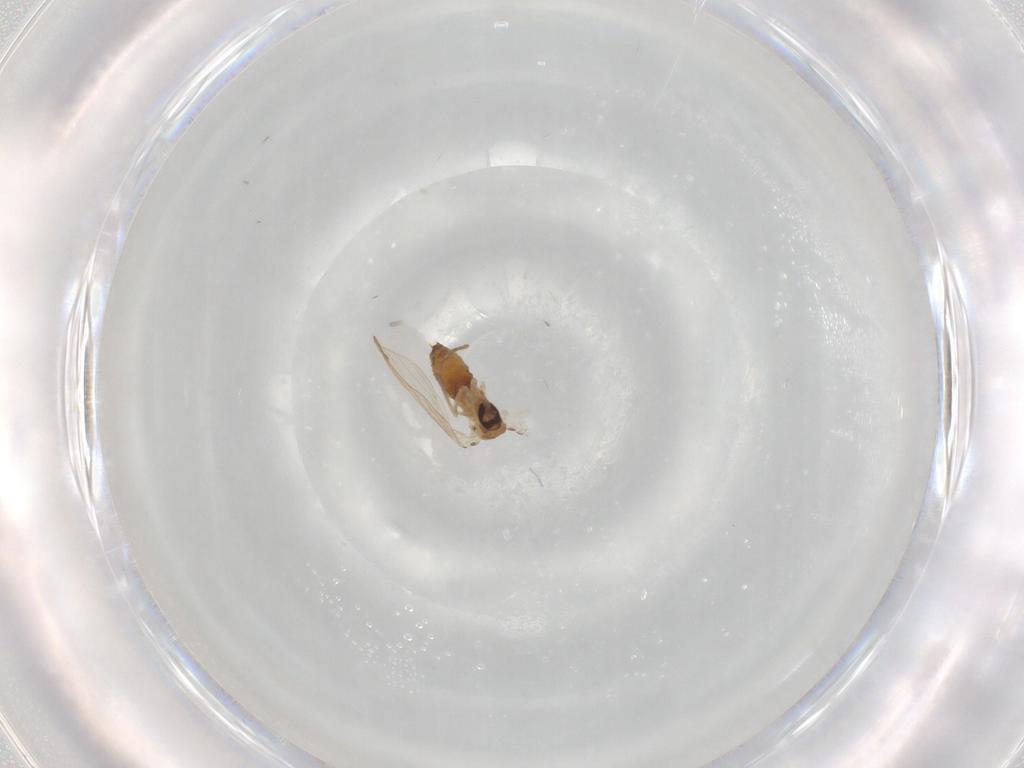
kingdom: Animalia
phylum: Arthropoda
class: Insecta
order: Diptera
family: Psychodidae
